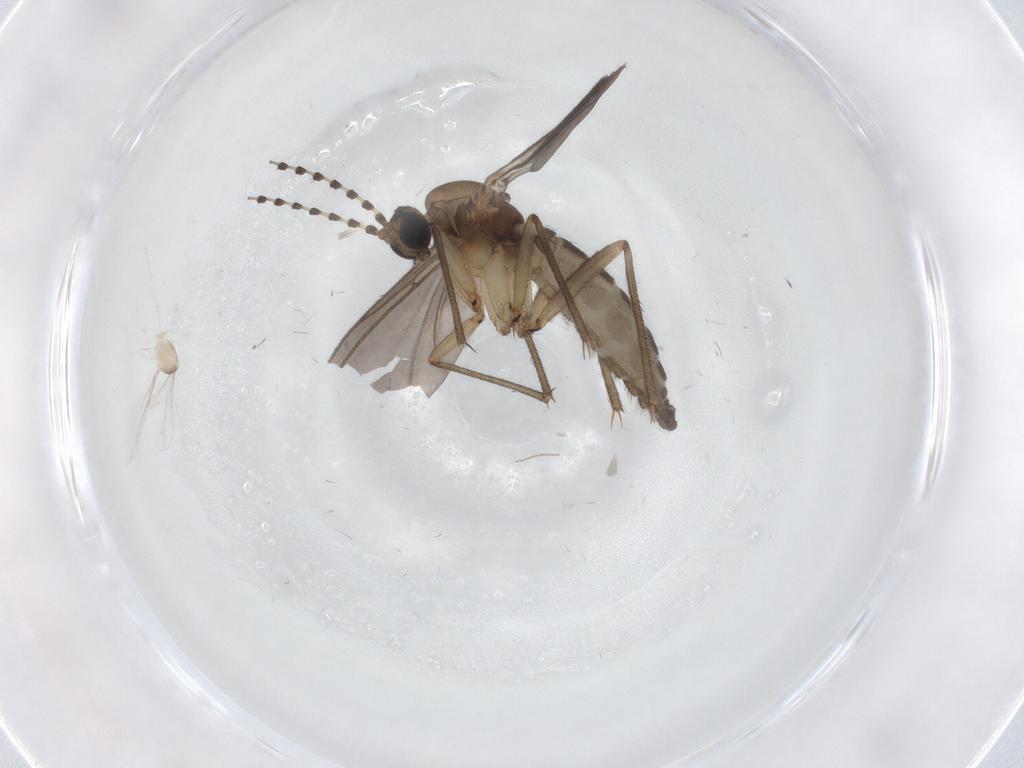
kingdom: Animalia
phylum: Arthropoda
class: Insecta
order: Diptera
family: Sciaridae
